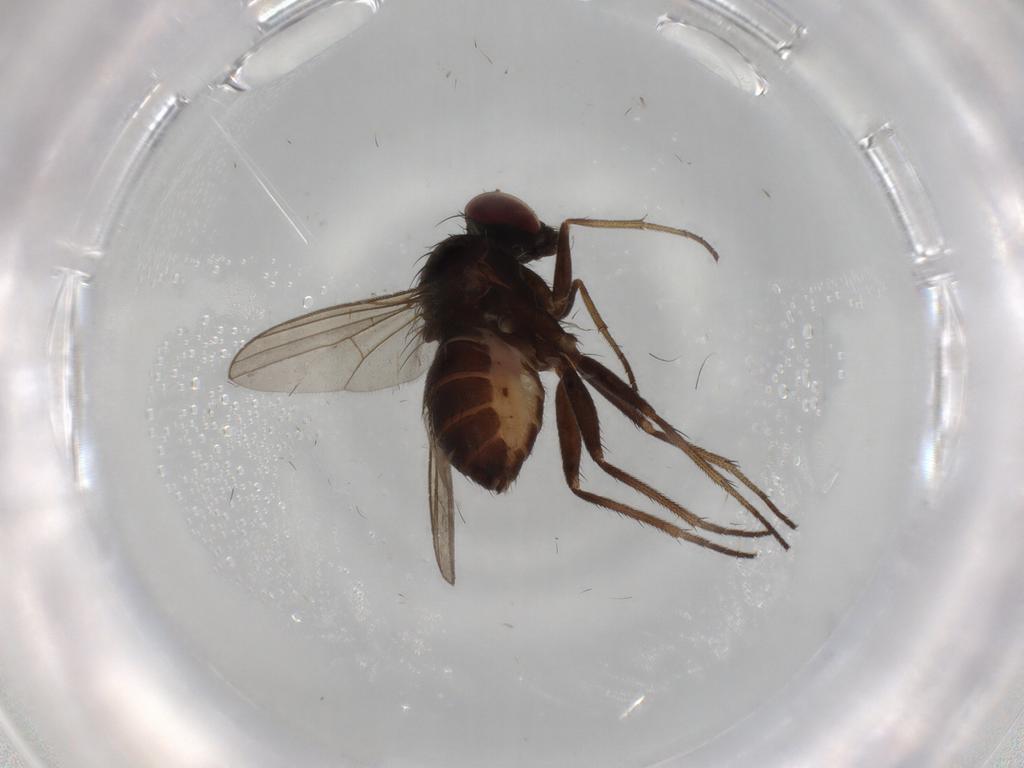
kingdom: Animalia
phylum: Arthropoda
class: Insecta
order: Diptera
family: Ceratopogonidae
